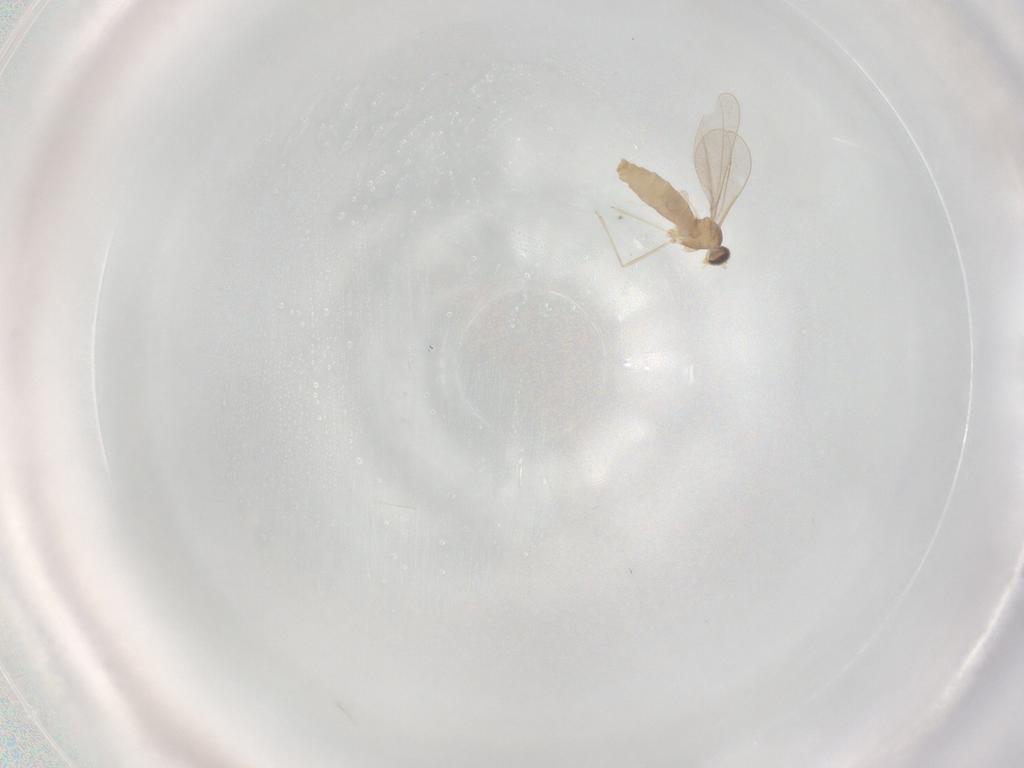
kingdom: Animalia
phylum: Arthropoda
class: Insecta
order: Diptera
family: Cecidomyiidae
